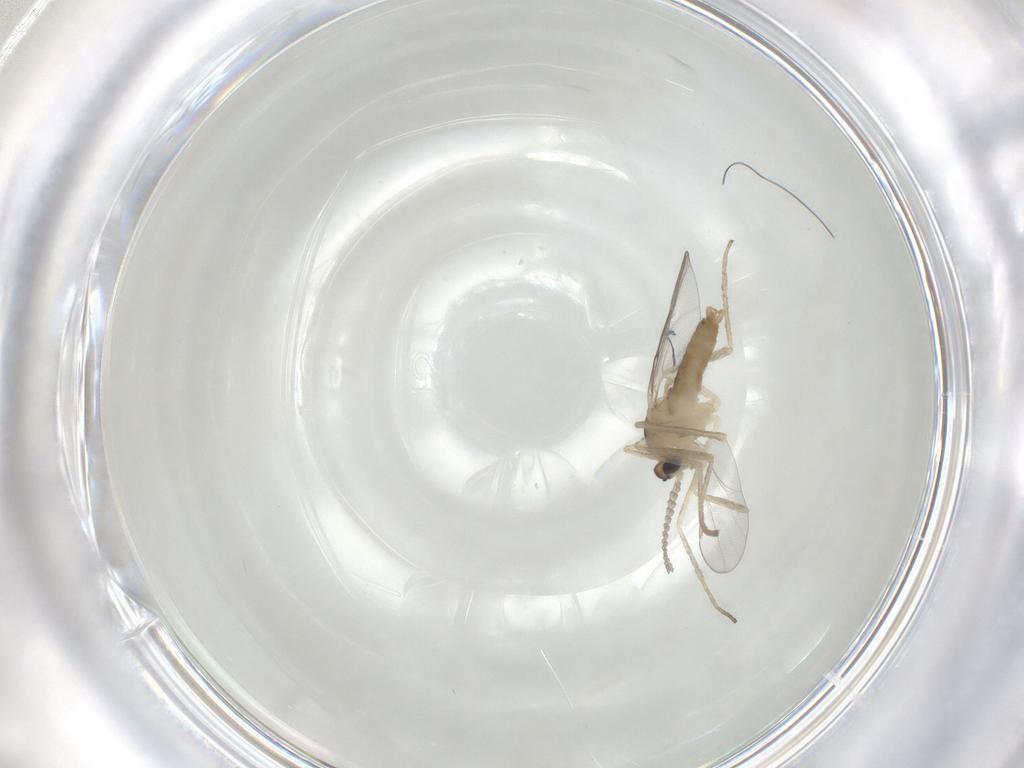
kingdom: Animalia
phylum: Arthropoda
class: Insecta
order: Diptera
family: Cecidomyiidae
